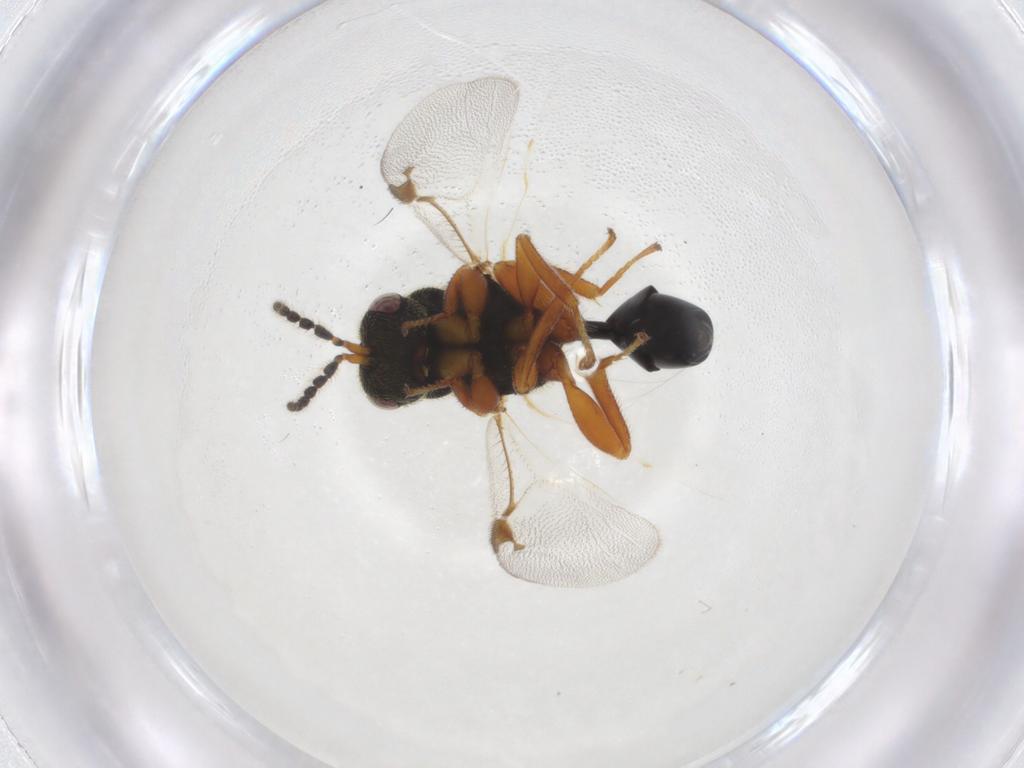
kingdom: Animalia
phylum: Arthropoda
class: Insecta
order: Hymenoptera
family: Eurytomidae
